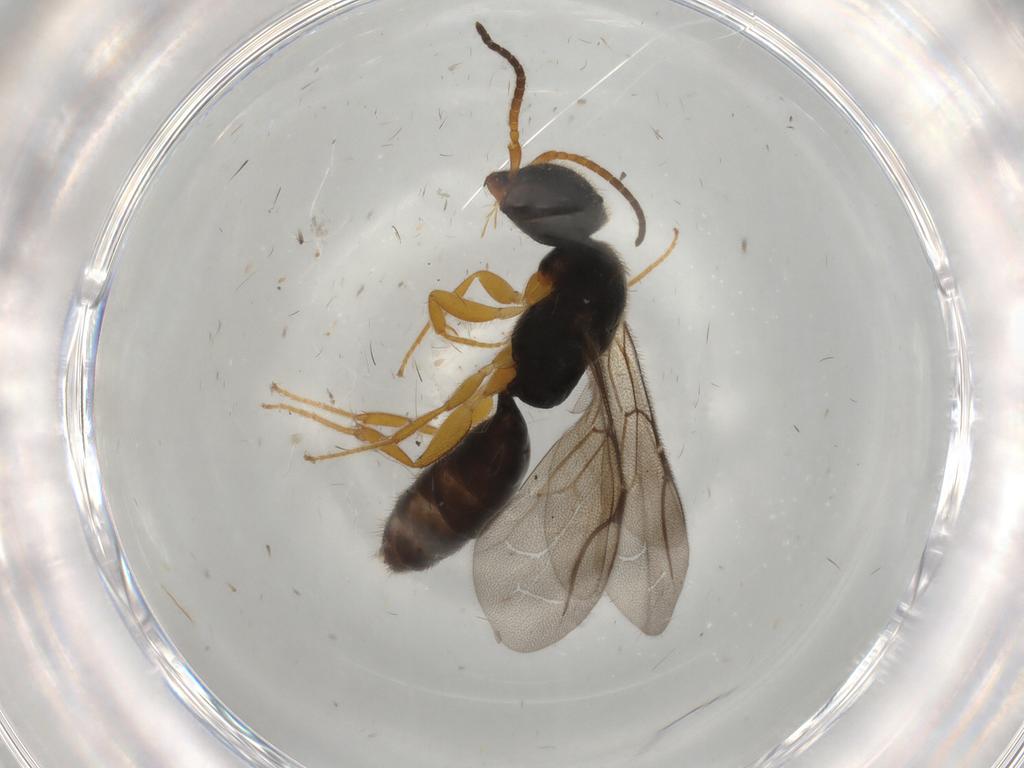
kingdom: Animalia
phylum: Arthropoda
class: Insecta
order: Hymenoptera
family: Bethylidae
